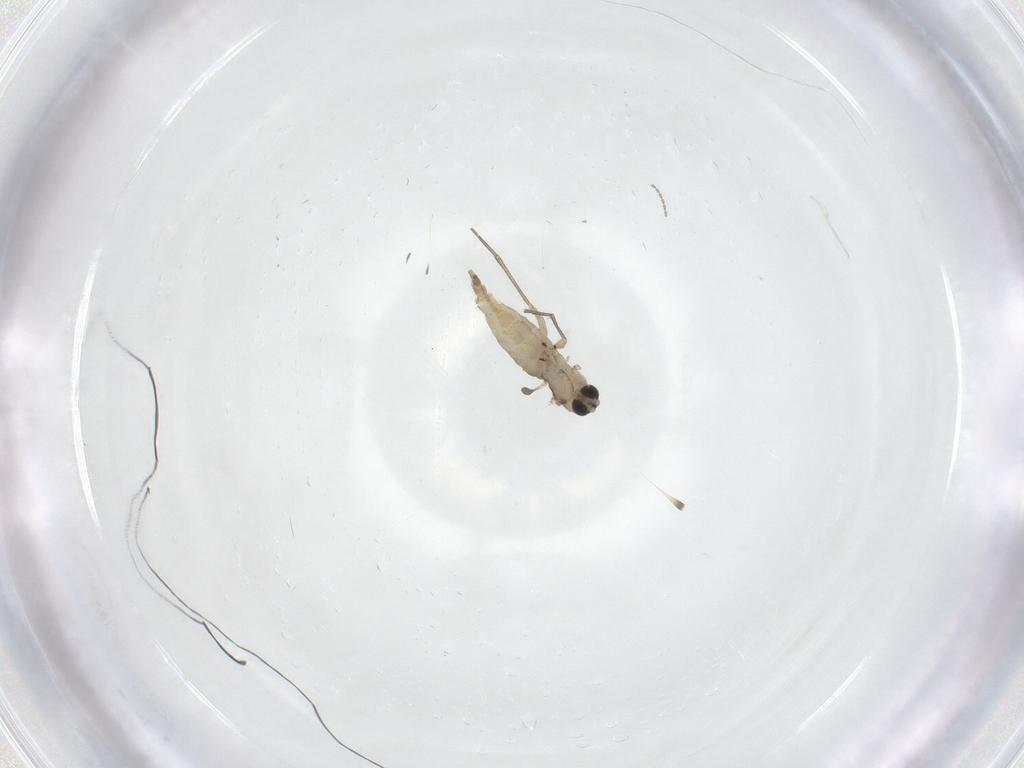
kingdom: Animalia
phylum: Arthropoda
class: Insecta
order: Diptera
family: Sciaridae
